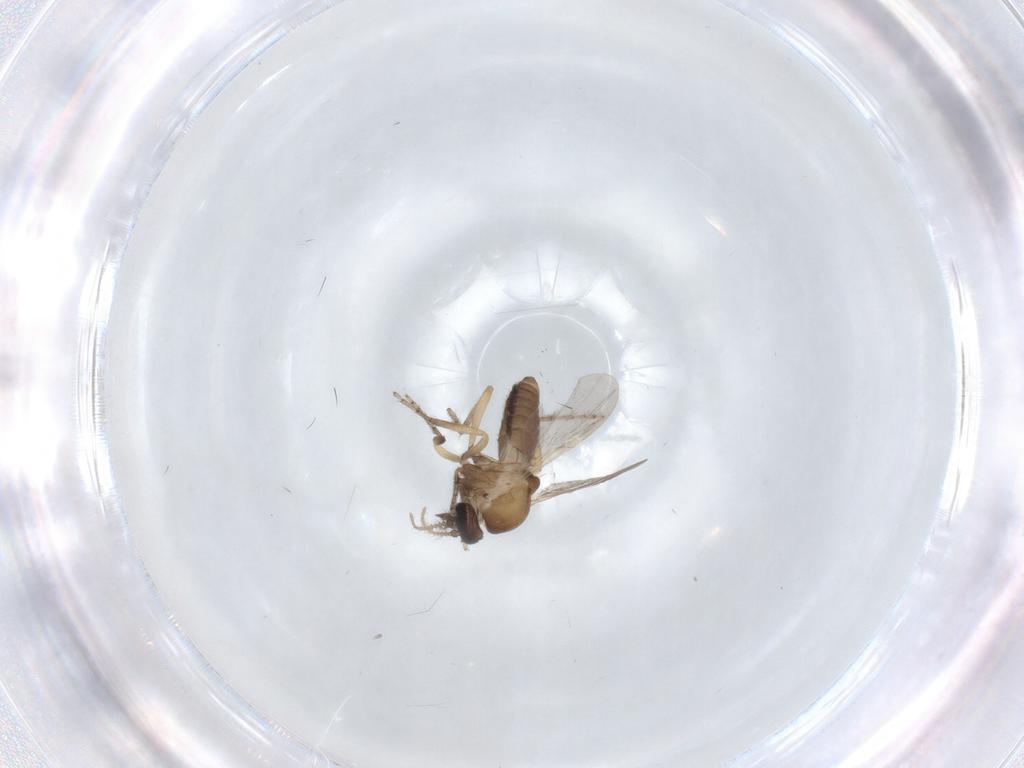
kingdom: Animalia
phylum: Arthropoda
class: Insecta
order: Diptera
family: Ceratopogonidae
